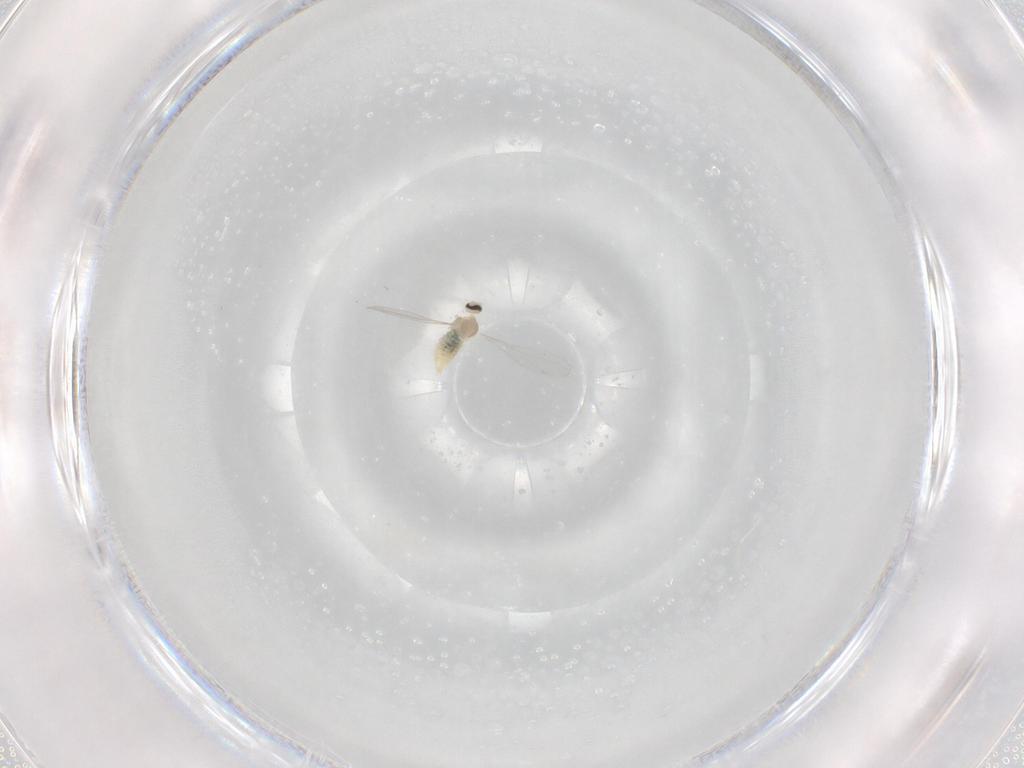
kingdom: Animalia
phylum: Arthropoda
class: Insecta
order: Diptera
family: Cecidomyiidae
